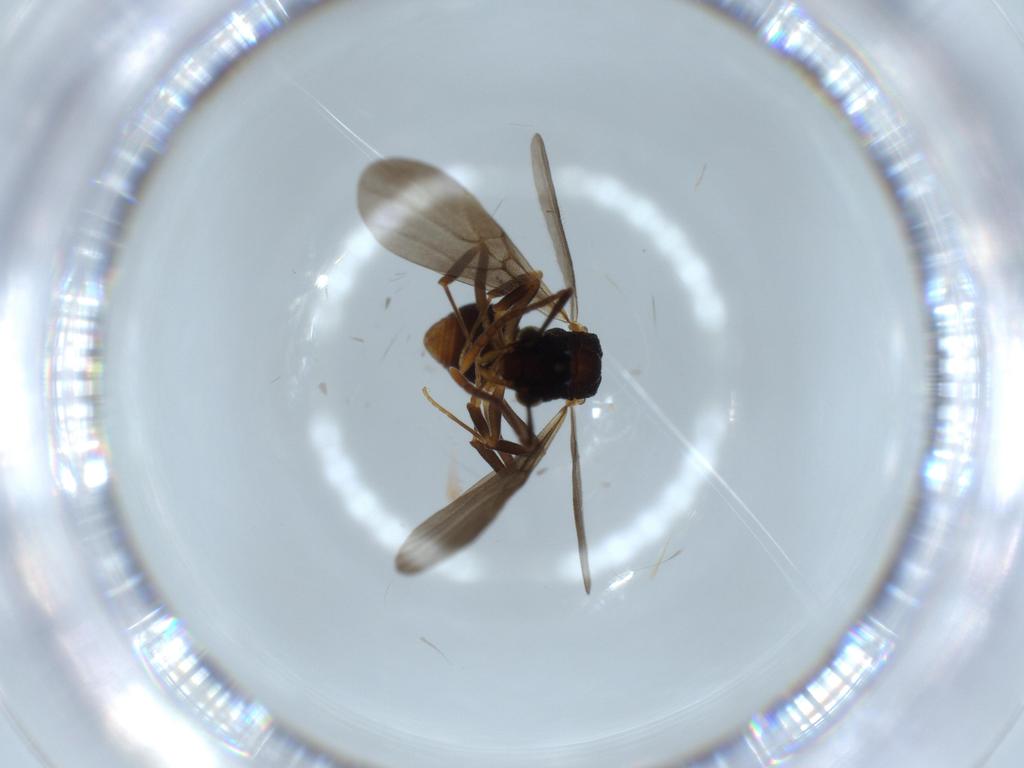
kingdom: Animalia
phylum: Arthropoda
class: Insecta
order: Hymenoptera
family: Formicidae
